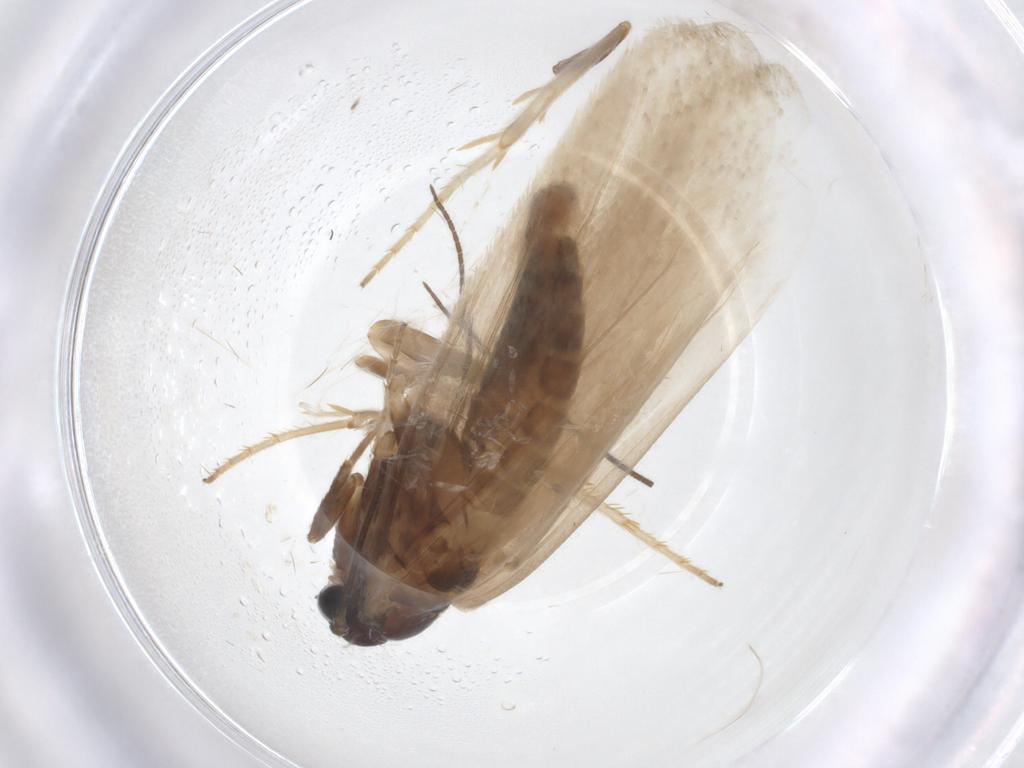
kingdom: Animalia
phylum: Arthropoda
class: Insecta
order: Lepidoptera
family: Tridentaformidae
